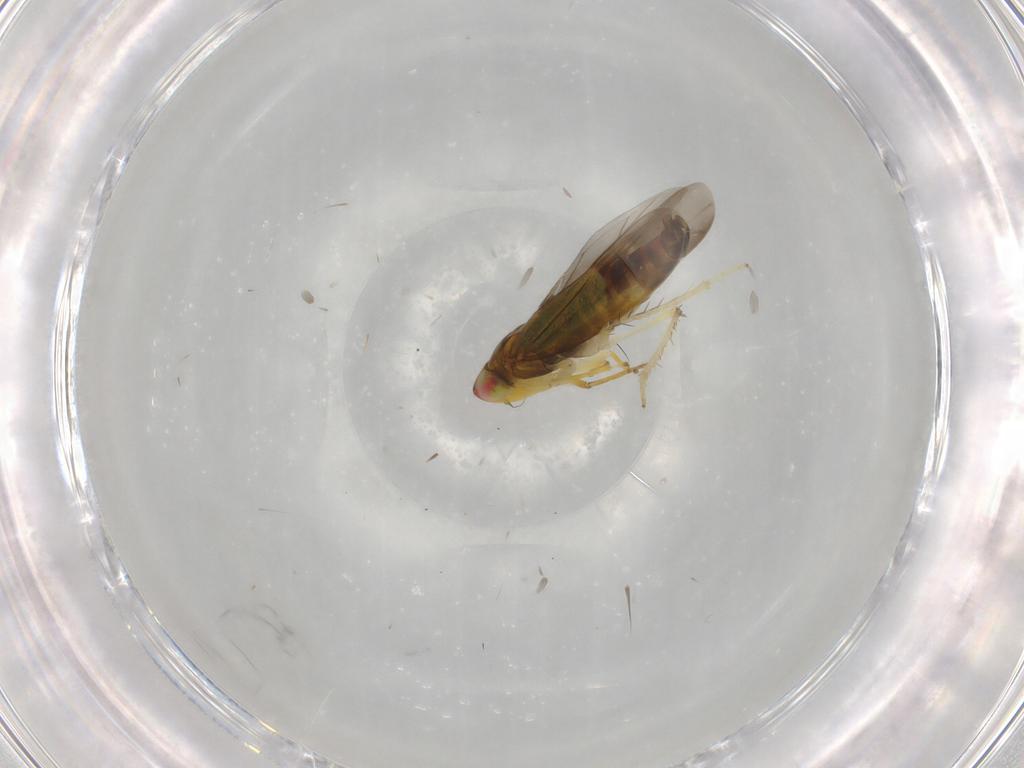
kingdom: Animalia
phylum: Arthropoda
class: Insecta
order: Hemiptera
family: Cicadellidae
